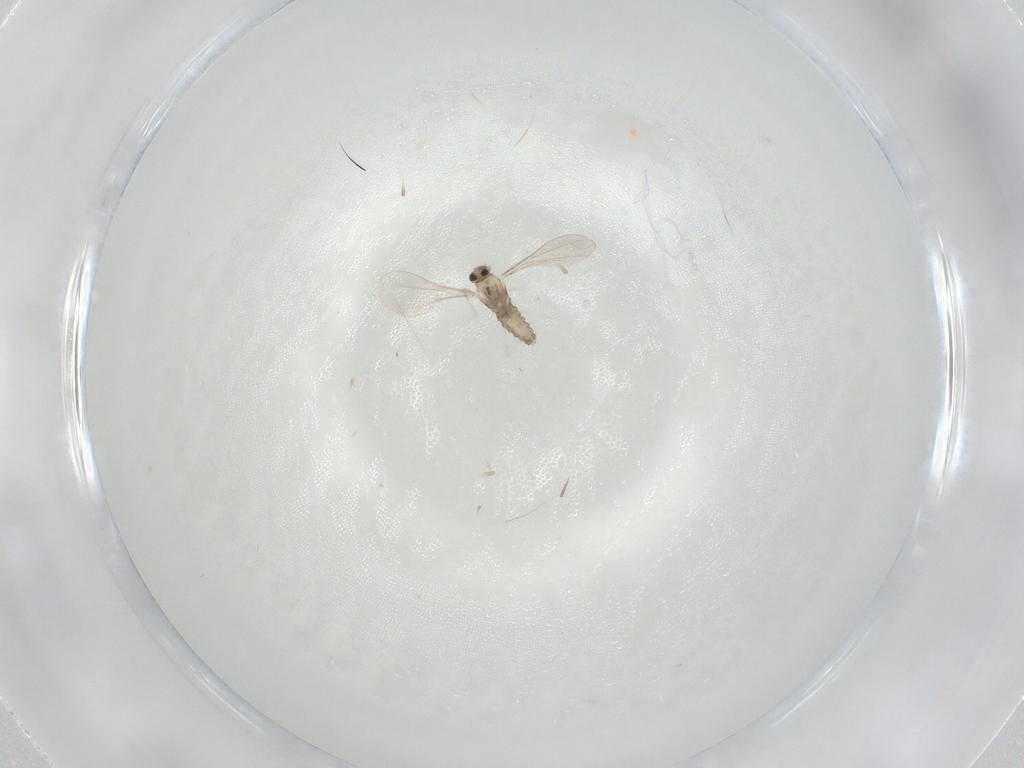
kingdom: Animalia
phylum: Arthropoda
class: Insecta
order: Diptera
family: Cecidomyiidae
